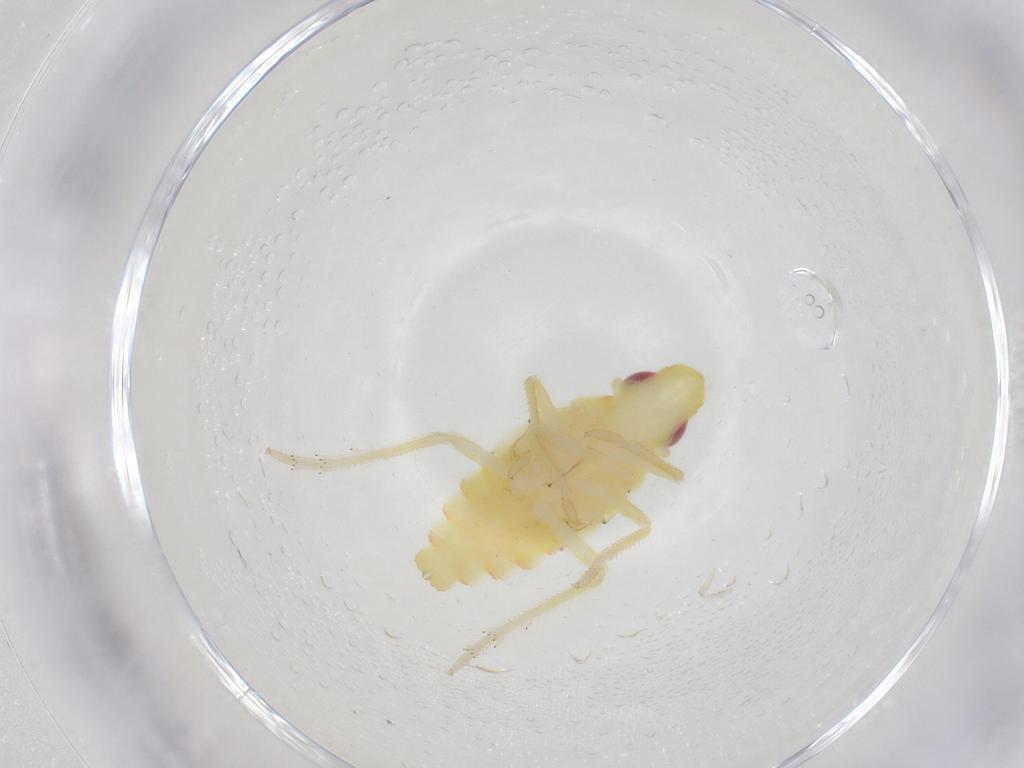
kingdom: Animalia
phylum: Arthropoda
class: Insecta
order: Hemiptera
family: Tropiduchidae
